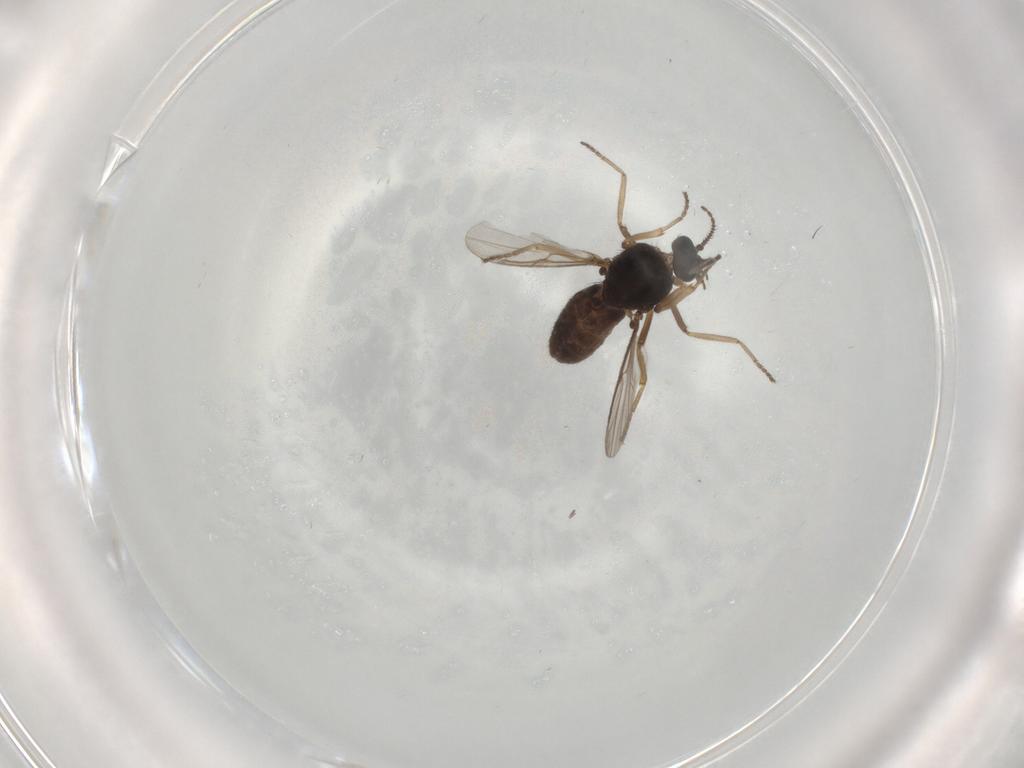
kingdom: Animalia
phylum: Arthropoda
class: Insecta
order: Diptera
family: Ceratopogonidae
